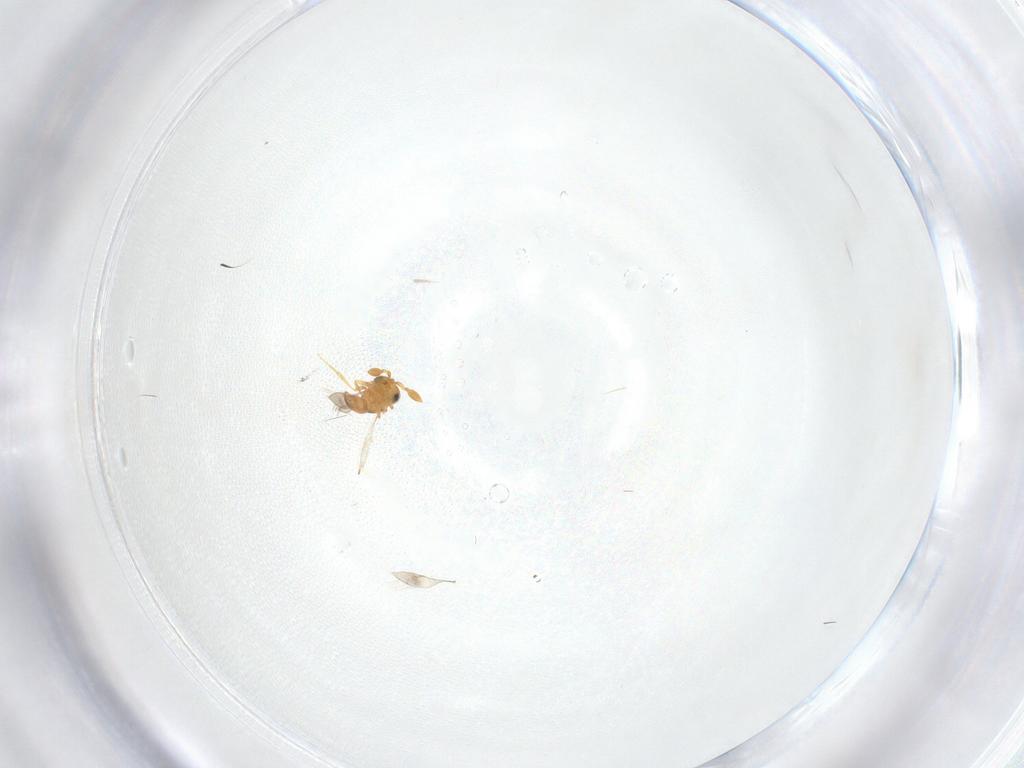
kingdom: Animalia
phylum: Arthropoda
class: Insecta
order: Hymenoptera
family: Scelionidae
